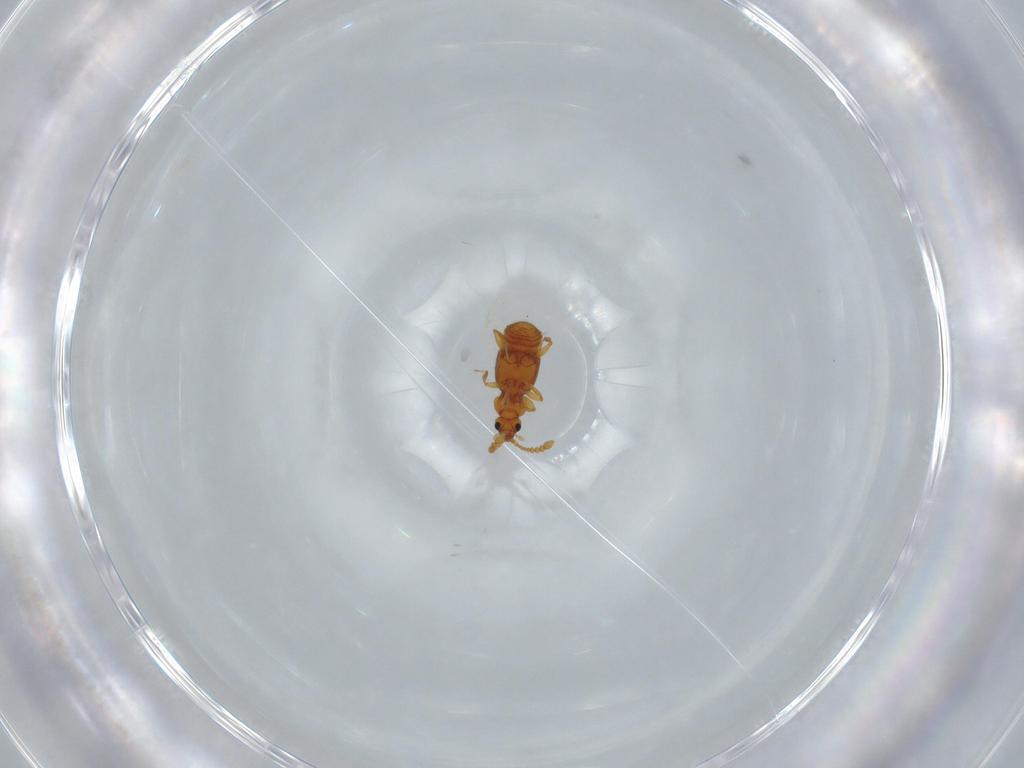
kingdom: Animalia
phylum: Arthropoda
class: Insecta
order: Coleoptera
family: Staphylinidae
